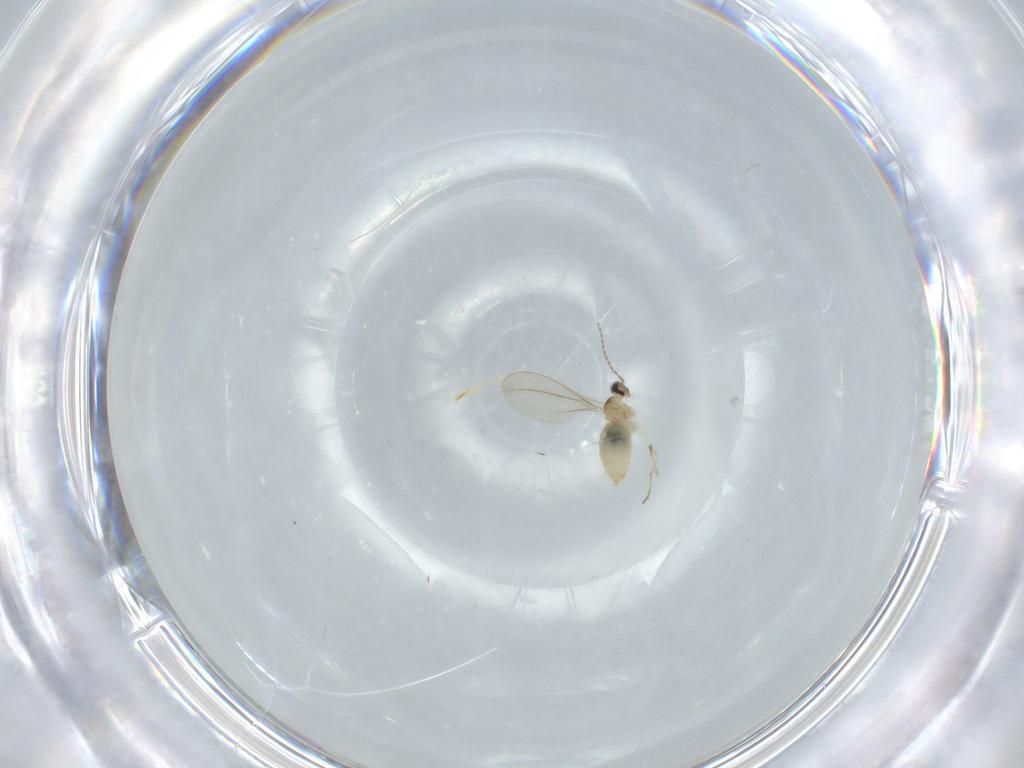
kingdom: Animalia
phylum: Arthropoda
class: Insecta
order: Diptera
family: Cecidomyiidae
